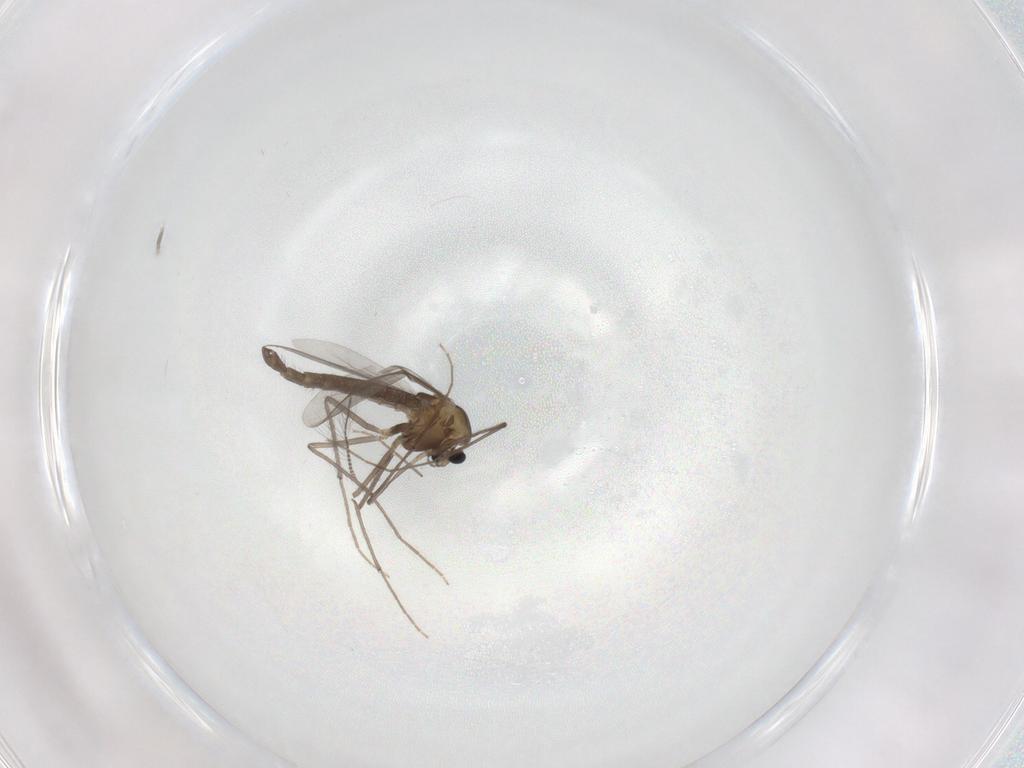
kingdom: Animalia
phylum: Arthropoda
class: Insecta
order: Diptera
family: Chironomidae
